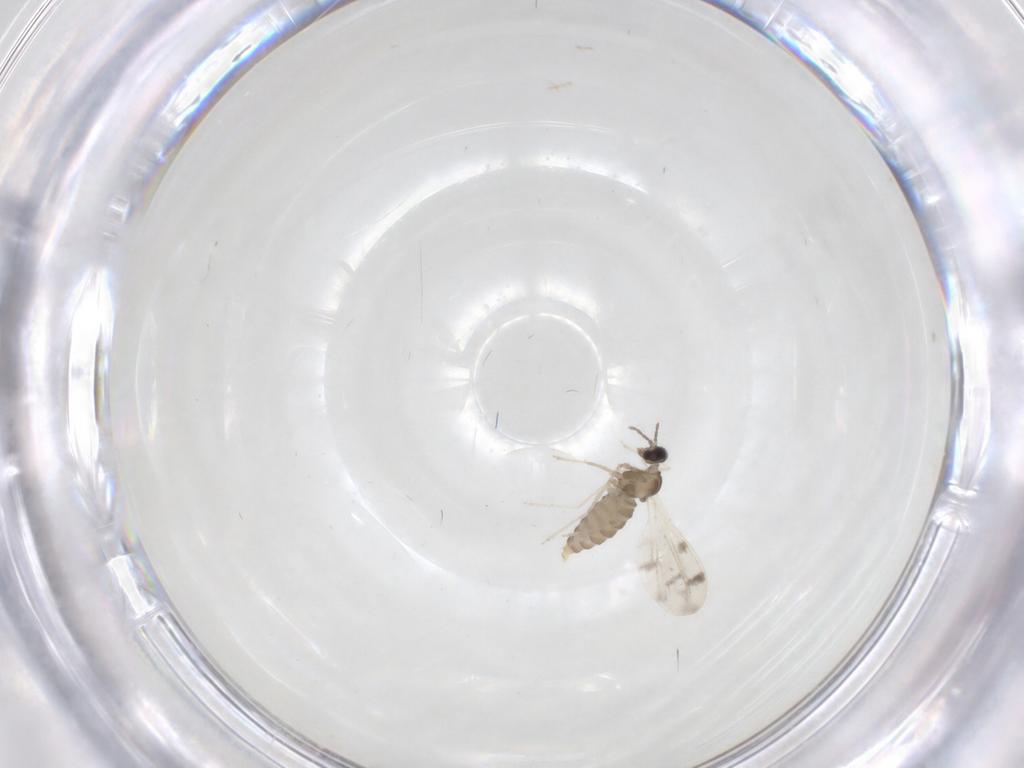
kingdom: Animalia
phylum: Arthropoda
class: Insecta
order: Diptera
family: Cecidomyiidae
